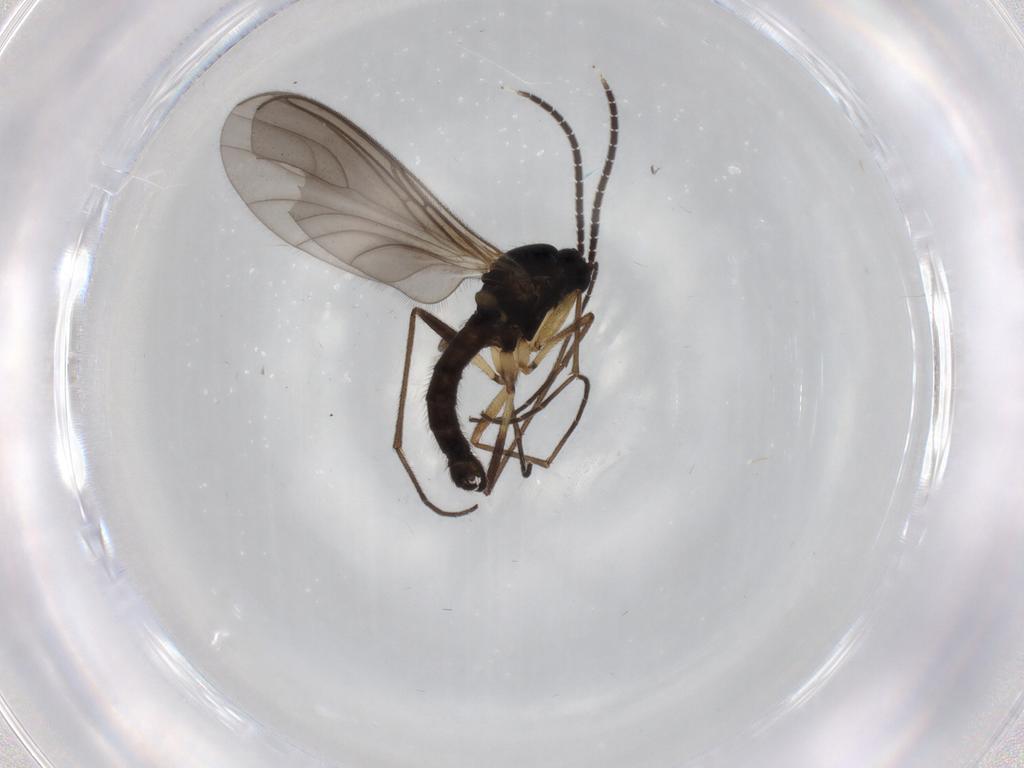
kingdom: Animalia
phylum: Arthropoda
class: Insecta
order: Diptera
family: Sciaridae
